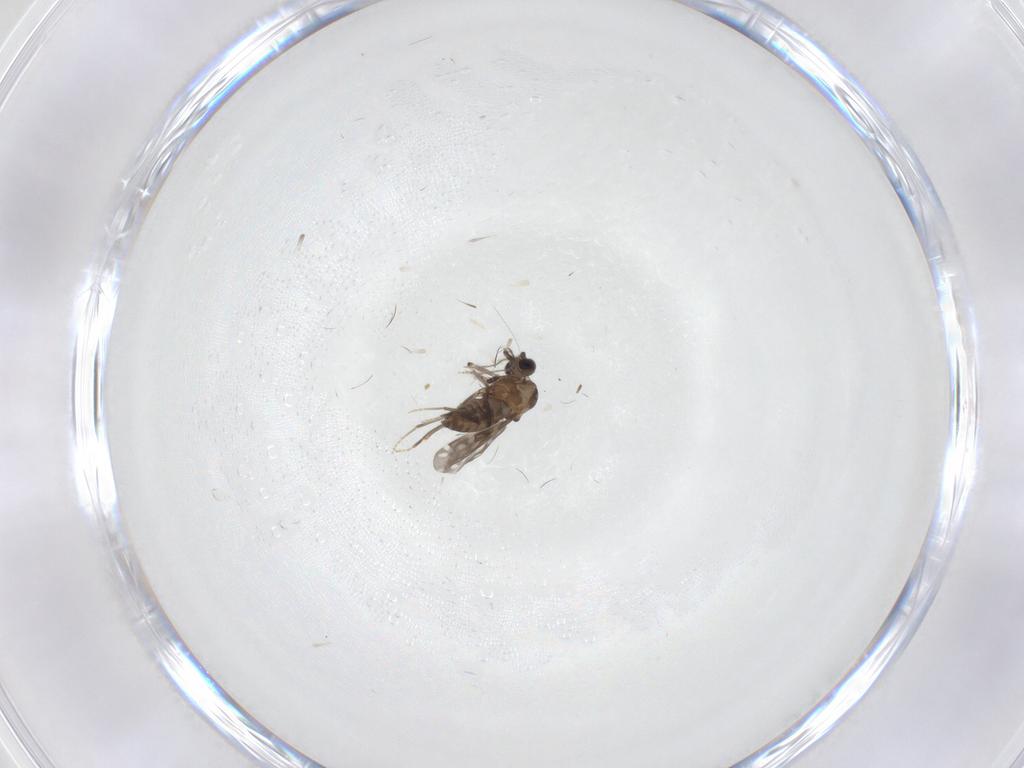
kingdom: Animalia
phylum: Arthropoda
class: Insecta
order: Diptera
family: Ceratopogonidae
